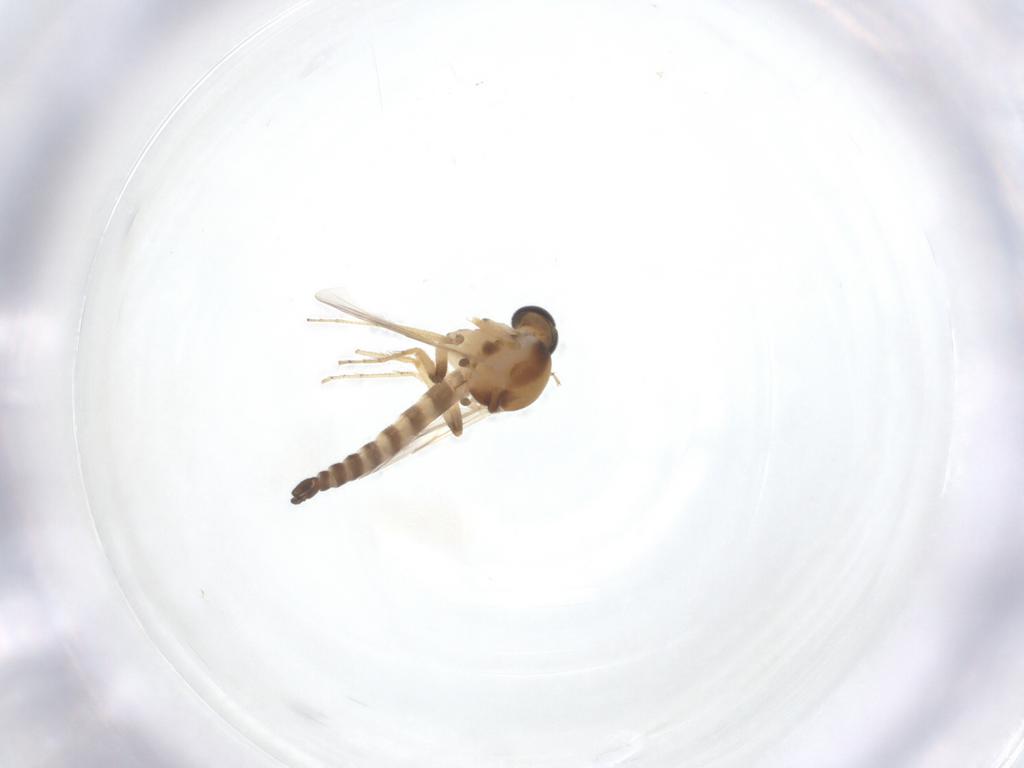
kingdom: Animalia
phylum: Arthropoda
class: Insecta
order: Diptera
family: Ceratopogonidae
